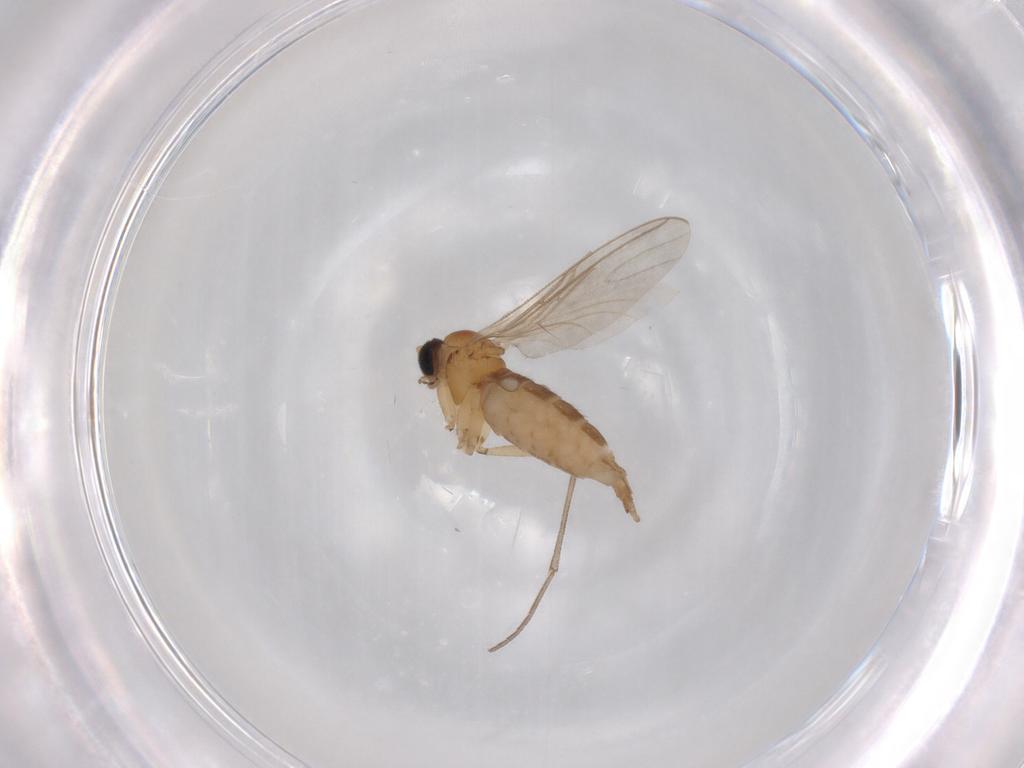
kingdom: Animalia
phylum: Arthropoda
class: Insecta
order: Diptera
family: Sciaridae
